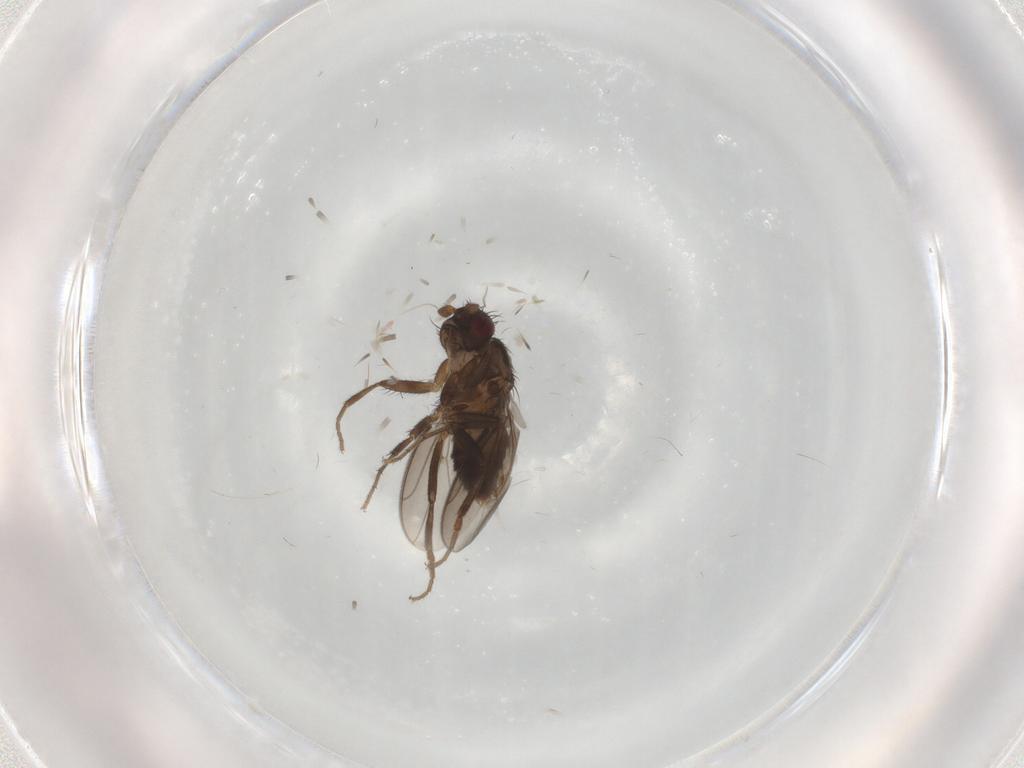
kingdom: Animalia
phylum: Arthropoda
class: Insecta
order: Diptera
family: Sphaeroceridae
